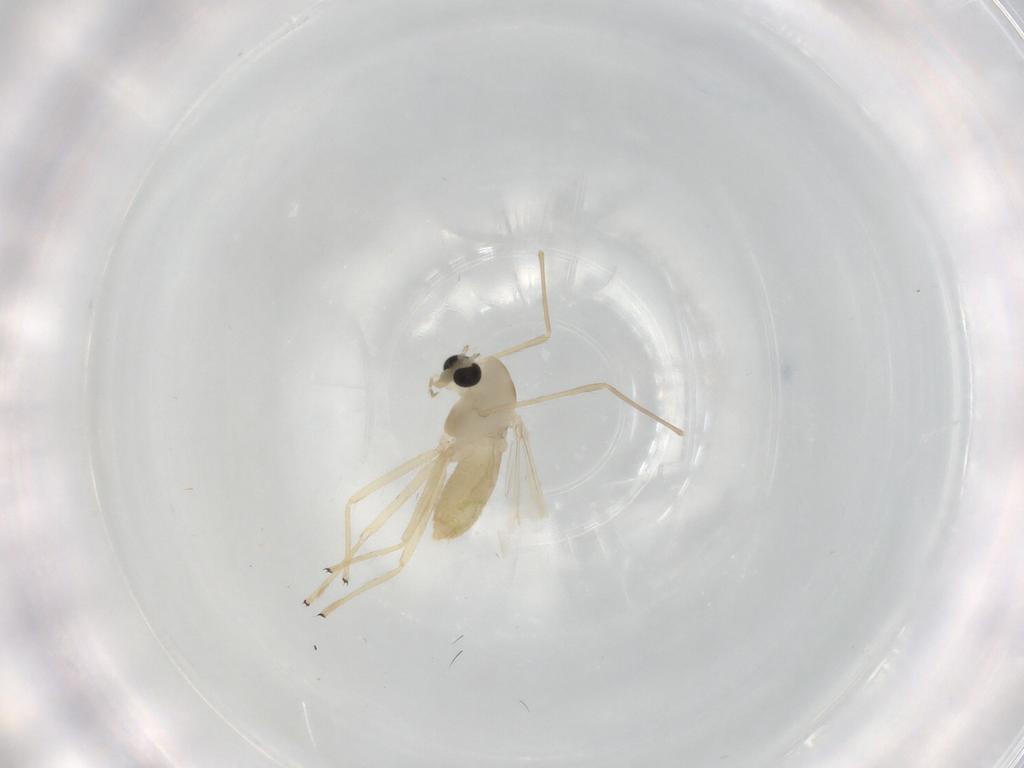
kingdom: Animalia
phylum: Arthropoda
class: Insecta
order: Diptera
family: Chironomidae
